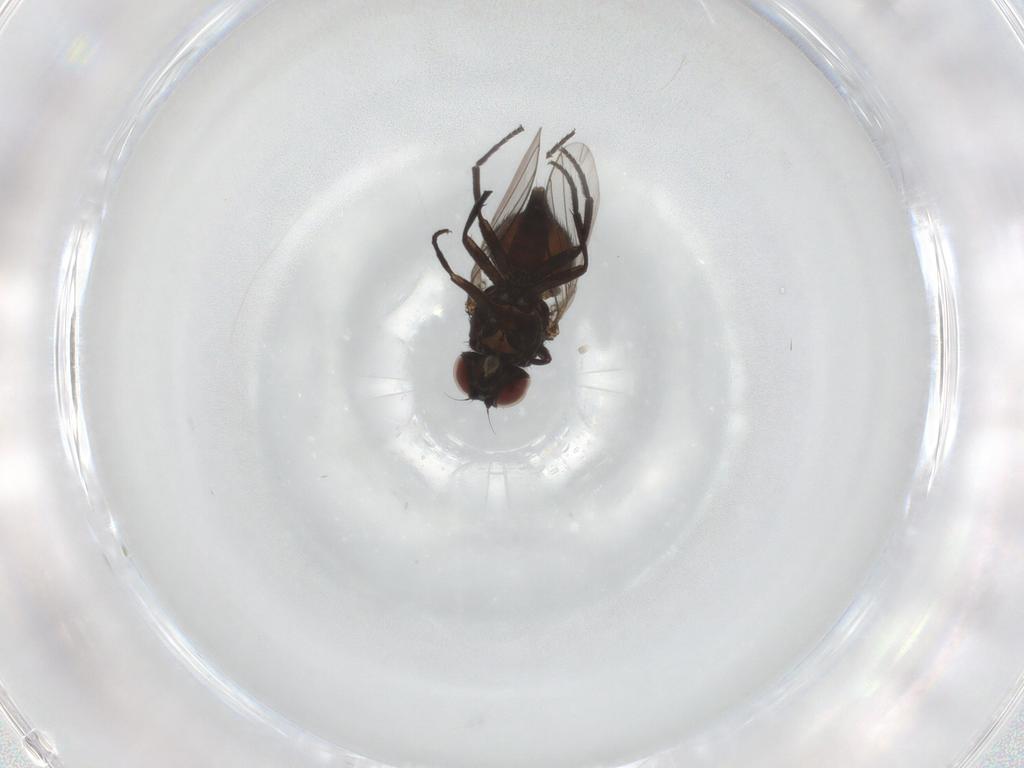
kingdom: Animalia
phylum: Arthropoda
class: Insecta
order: Diptera
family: Agromyzidae
